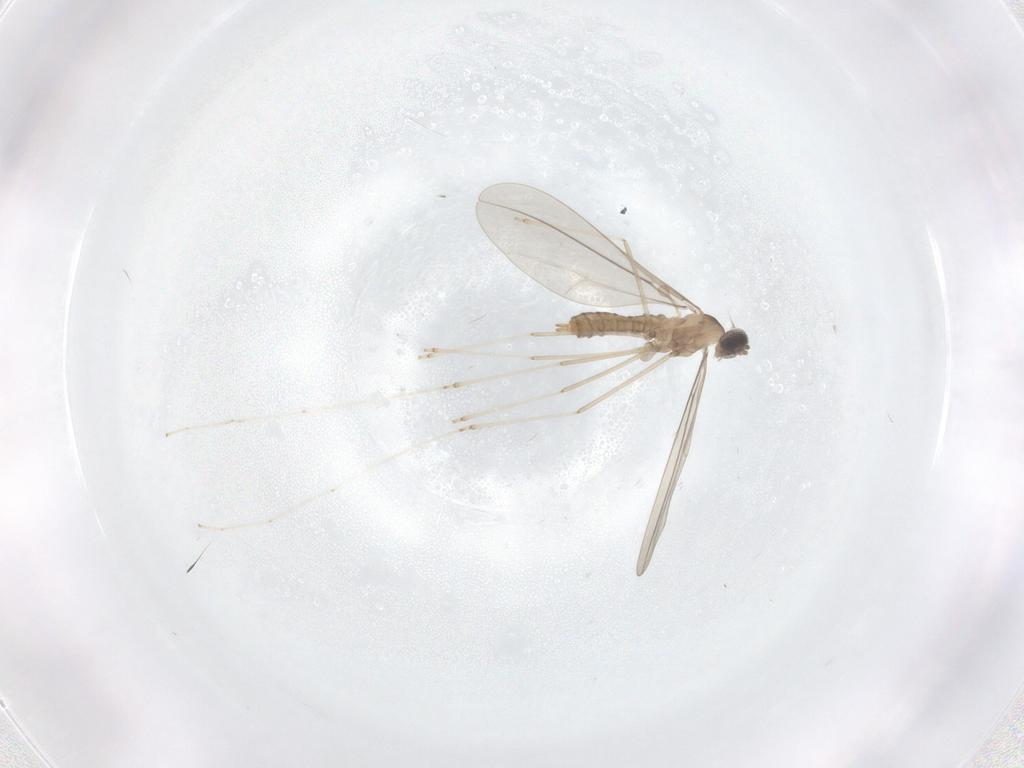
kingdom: Animalia
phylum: Arthropoda
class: Insecta
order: Diptera
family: Cecidomyiidae
